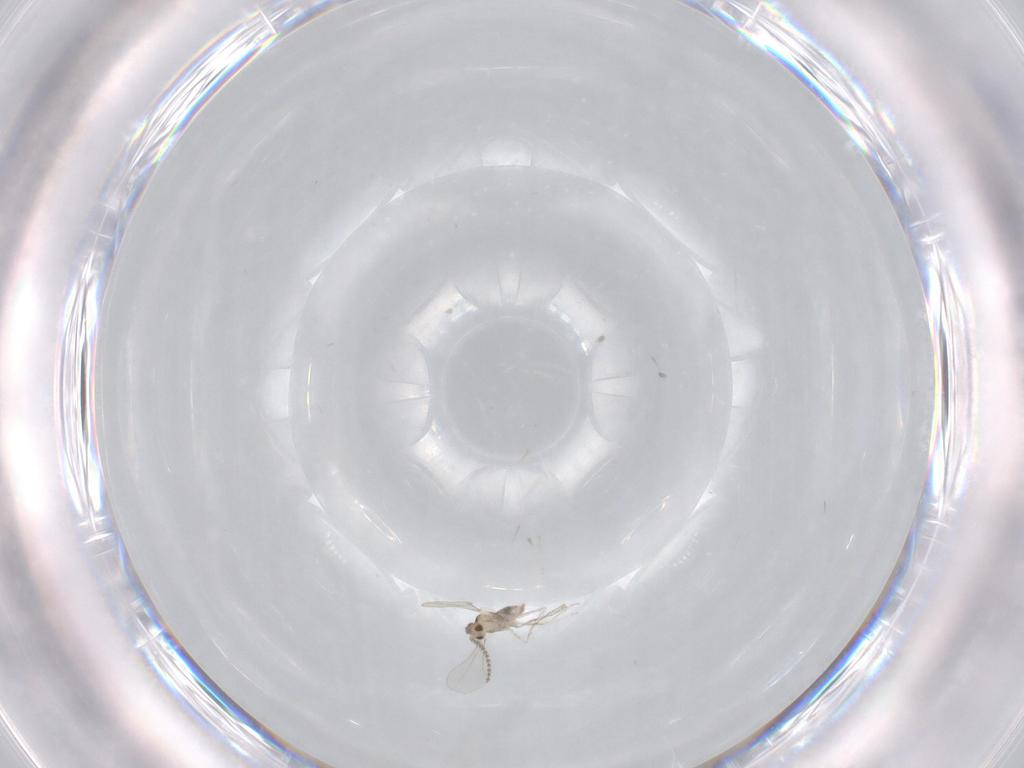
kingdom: Animalia
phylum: Arthropoda
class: Insecta
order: Diptera
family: Cecidomyiidae
